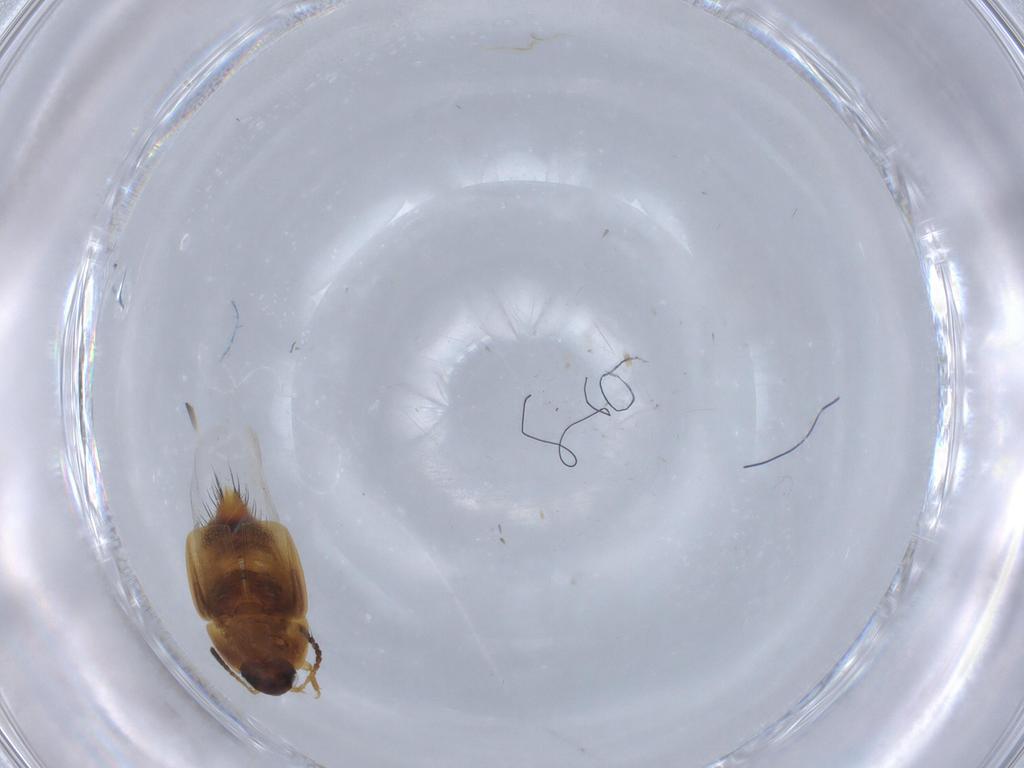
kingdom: Animalia
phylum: Arthropoda
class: Insecta
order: Coleoptera
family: Staphylinidae
